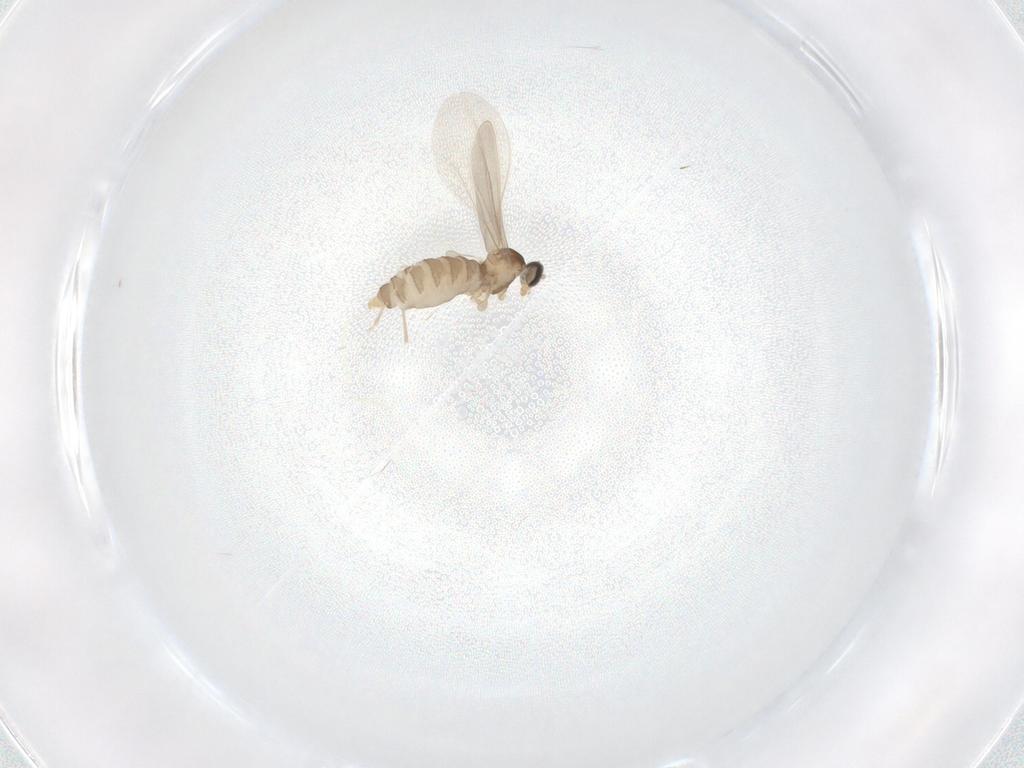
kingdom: Animalia
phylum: Arthropoda
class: Insecta
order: Diptera
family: Cecidomyiidae
